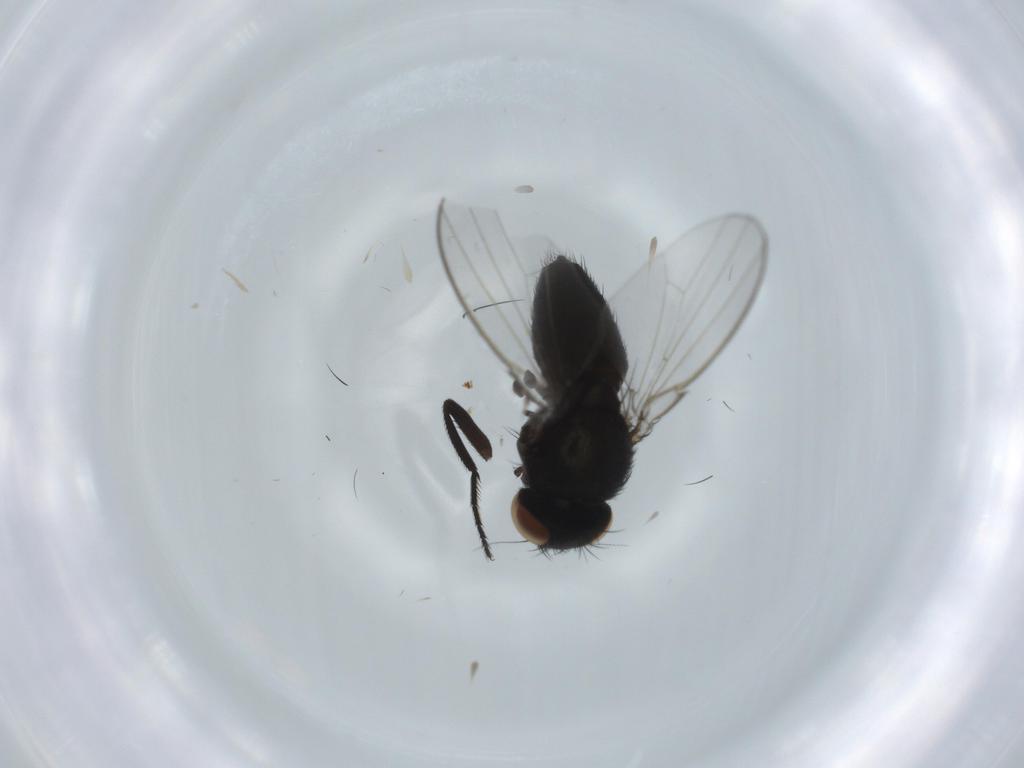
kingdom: Animalia
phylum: Arthropoda
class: Insecta
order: Diptera
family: Milichiidae
